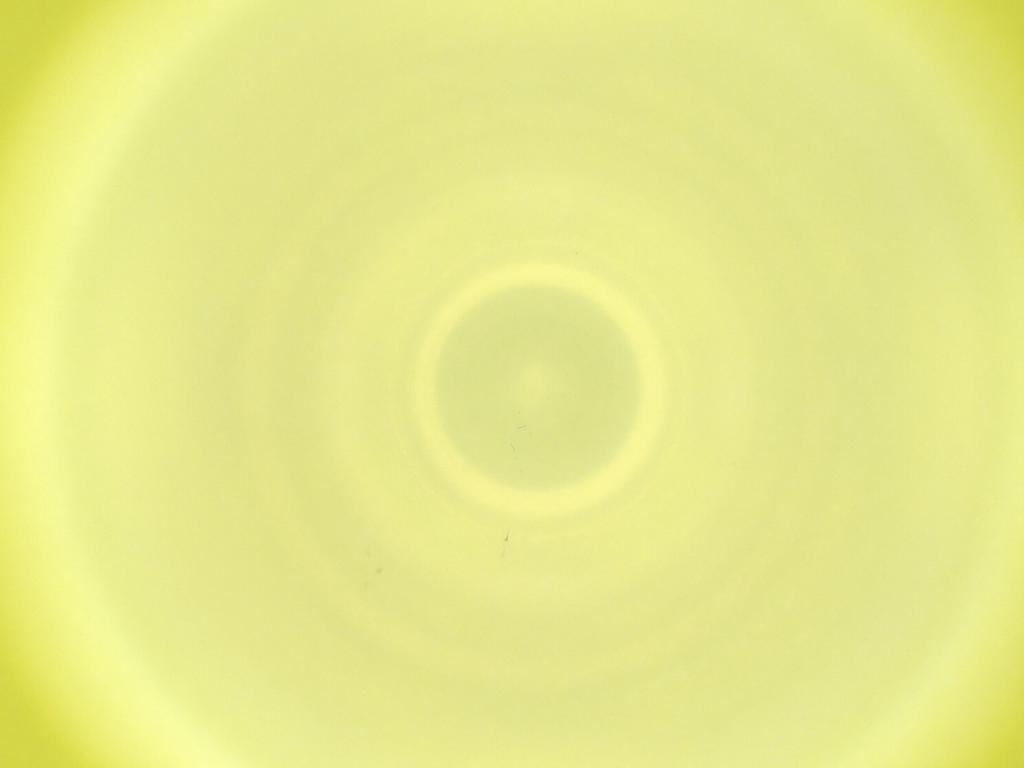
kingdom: Animalia
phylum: Arthropoda
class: Insecta
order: Diptera
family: Cecidomyiidae
